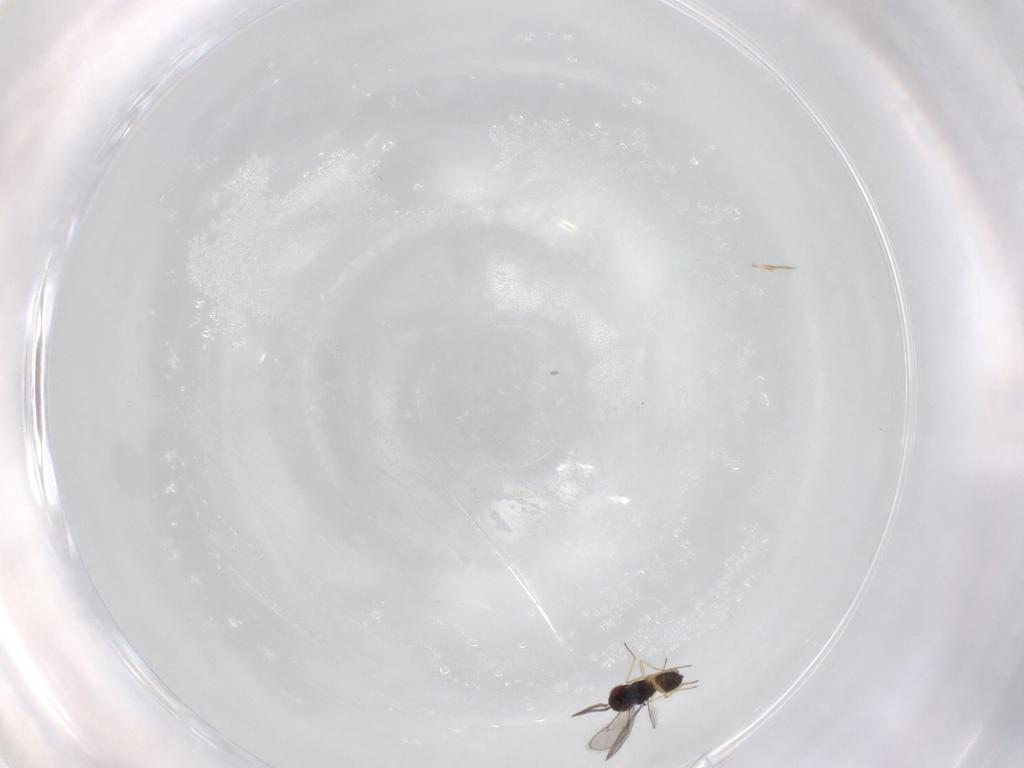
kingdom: Animalia
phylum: Arthropoda
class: Insecta
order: Hymenoptera
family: Eulophidae
